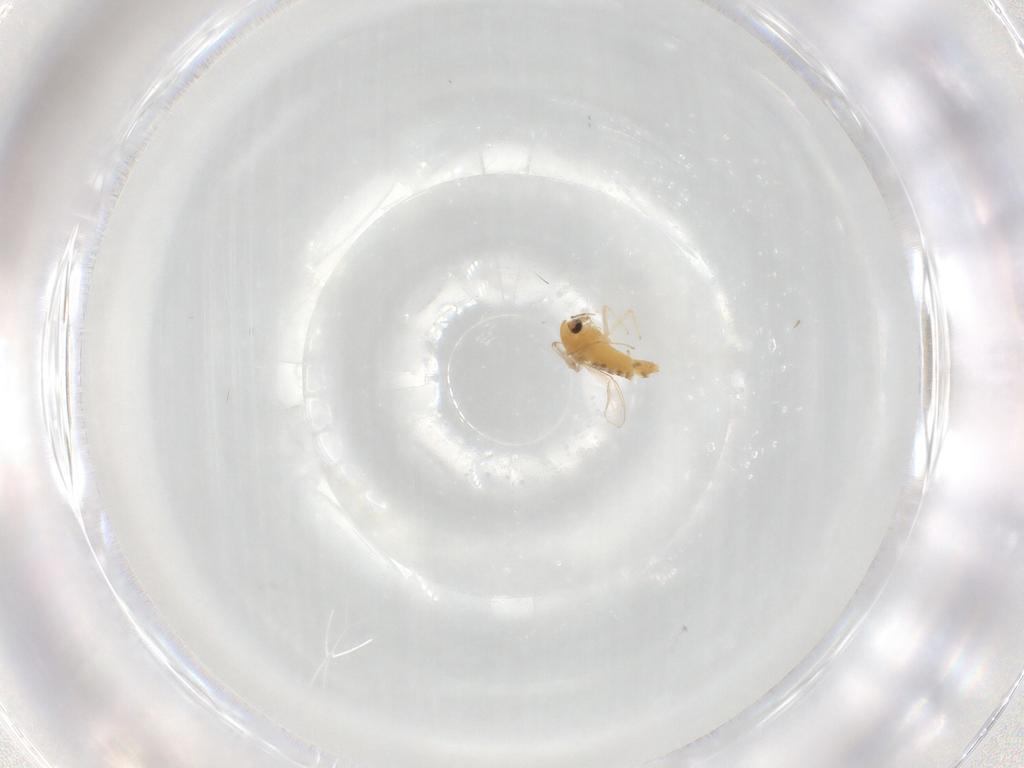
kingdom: Animalia
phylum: Arthropoda
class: Insecta
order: Diptera
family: Chironomidae
